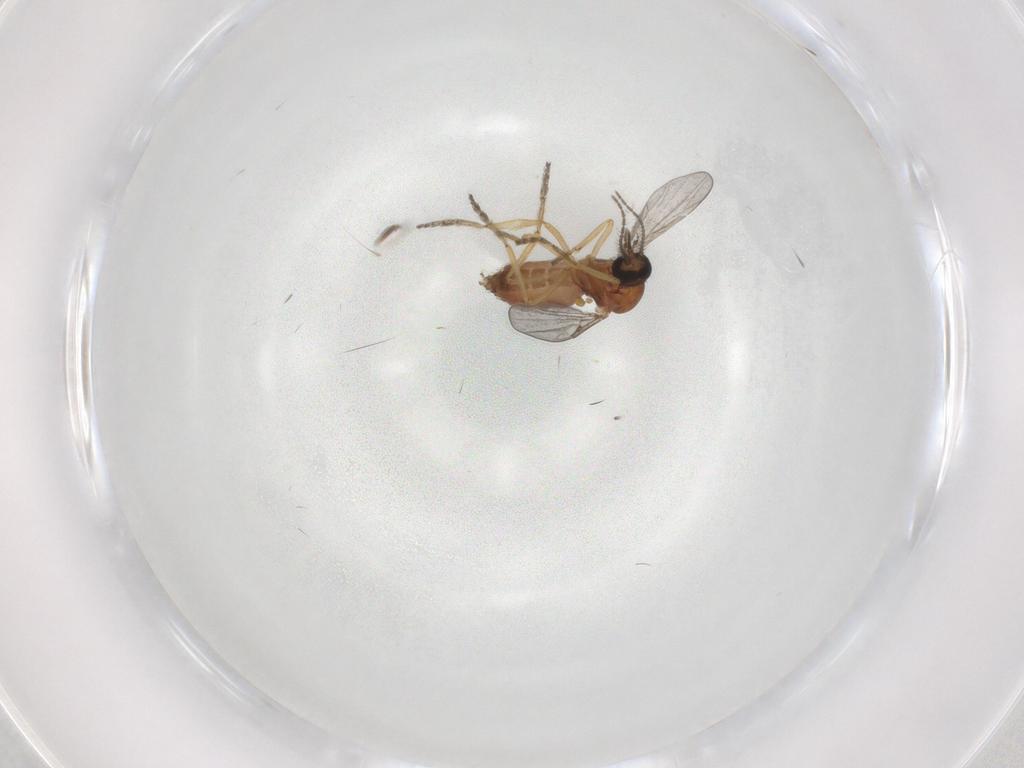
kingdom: Animalia
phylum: Arthropoda
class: Insecta
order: Diptera
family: Ceratopogonidae
